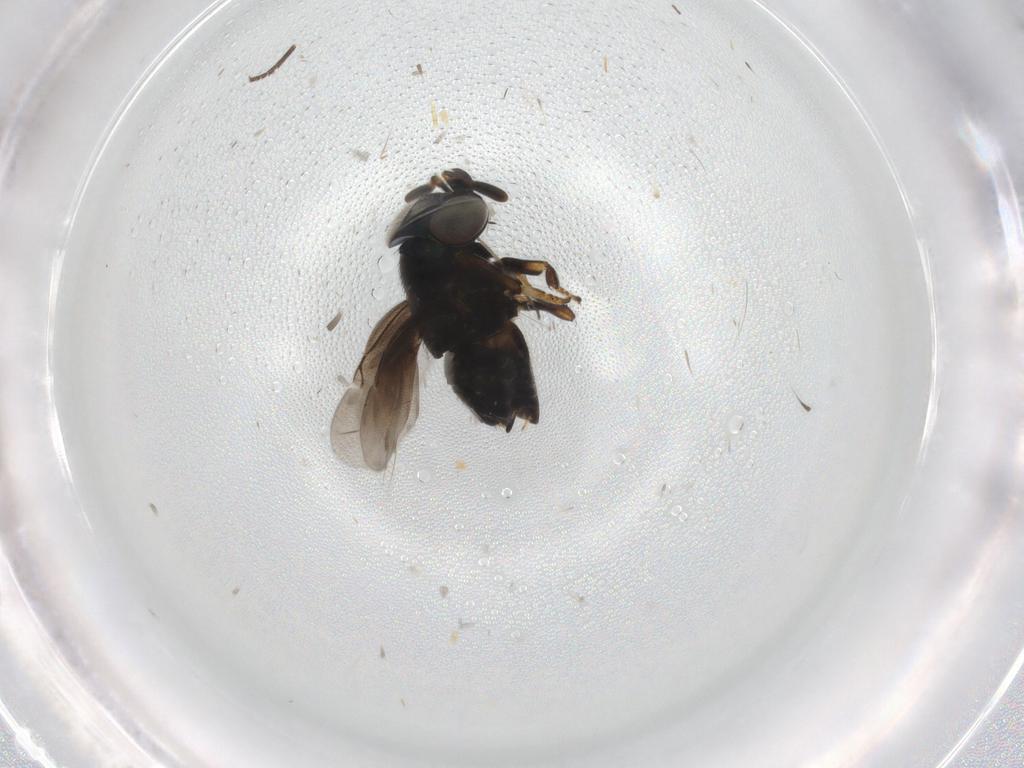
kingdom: Animalia
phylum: Arthropoda
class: Insecta
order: Hymenoptera
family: Encyrtidae
